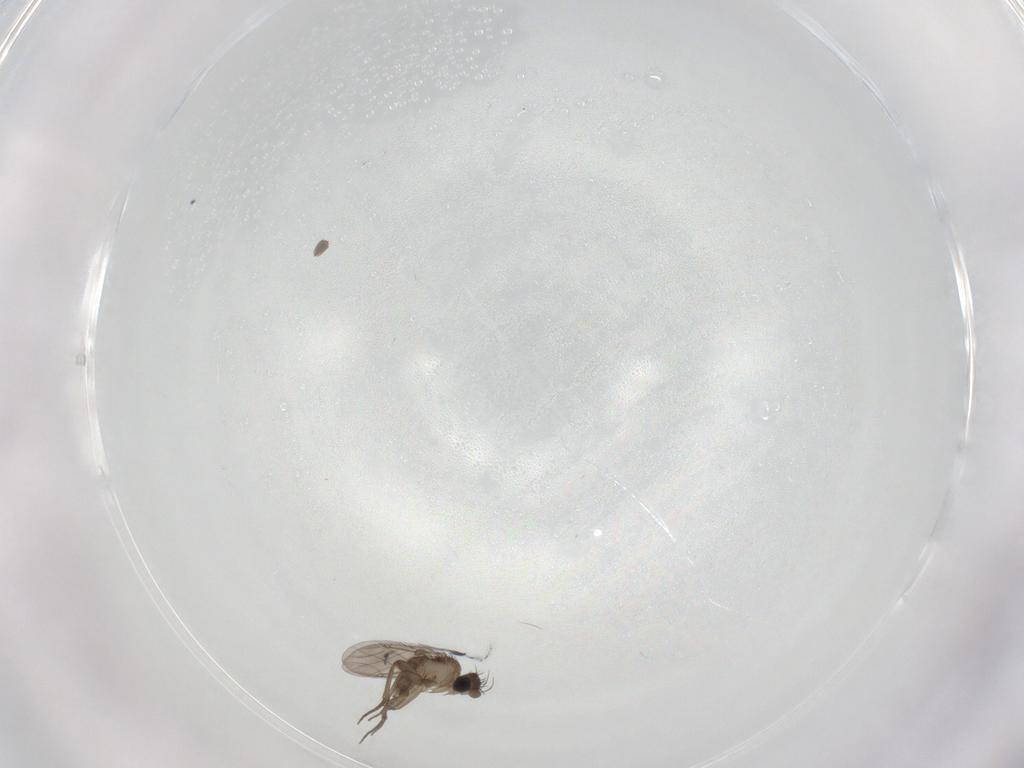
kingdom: Animalia
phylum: Arthropoda
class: Insecta
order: Diptera
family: Phoridae
